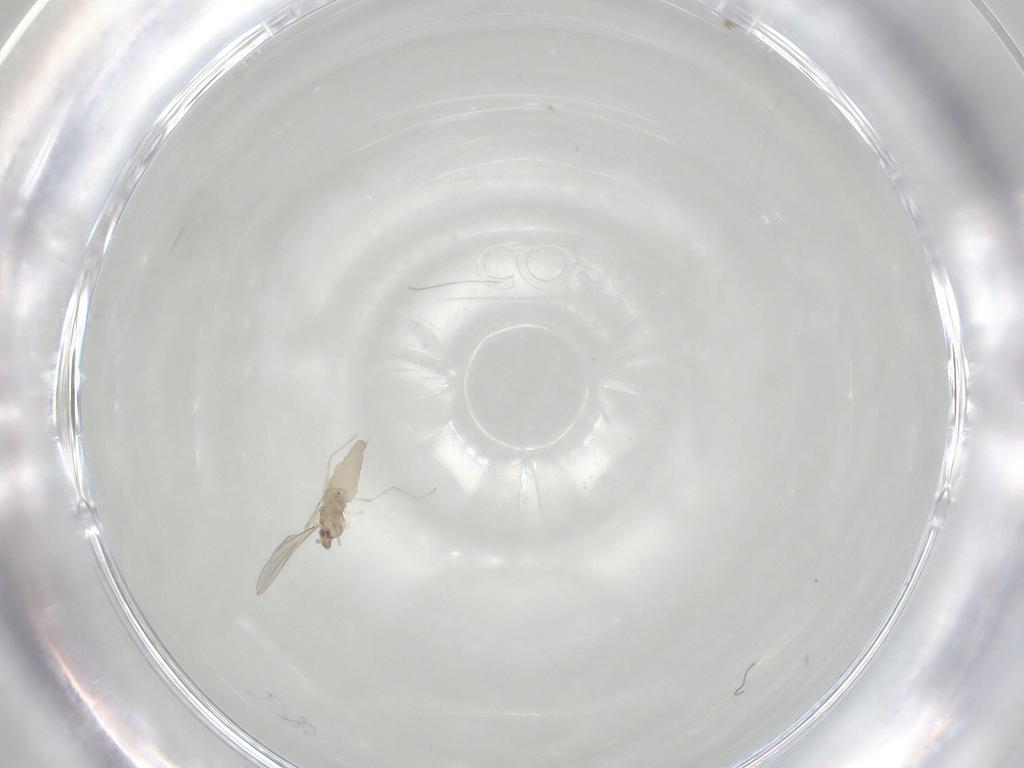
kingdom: Animalia
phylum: Arthropoda
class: Insecta
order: Diptera
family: Cecidomyiidae
